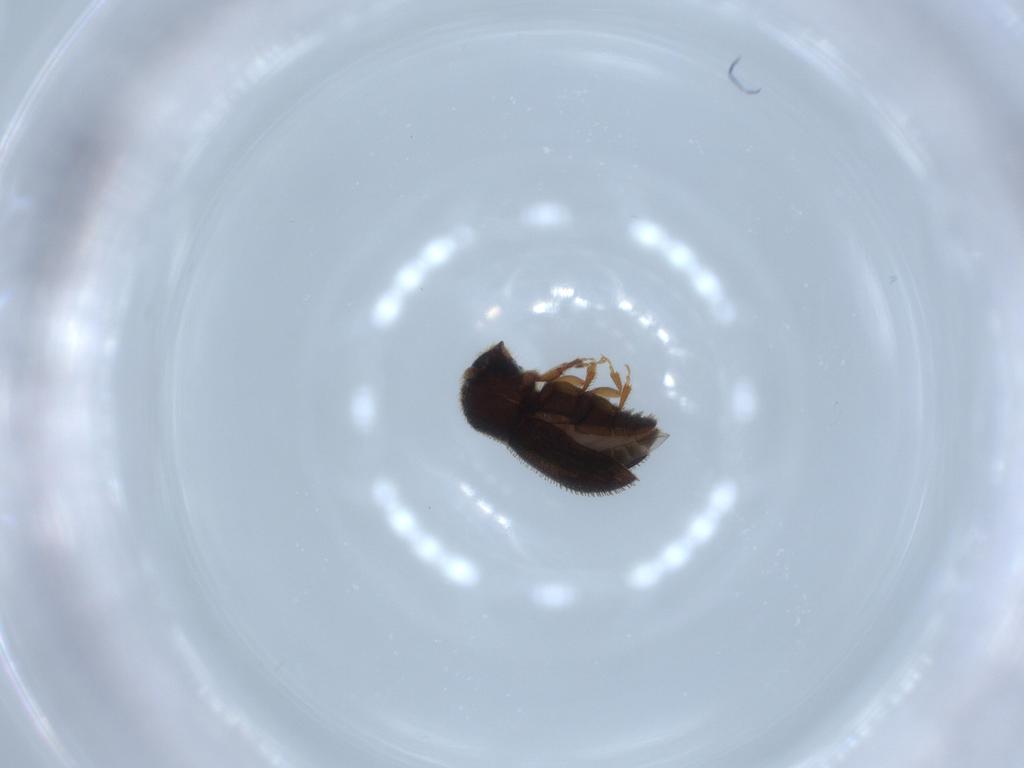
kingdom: Animalia
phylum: Arthropoda
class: Insecta
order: Coleoptera
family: Curculionidae
